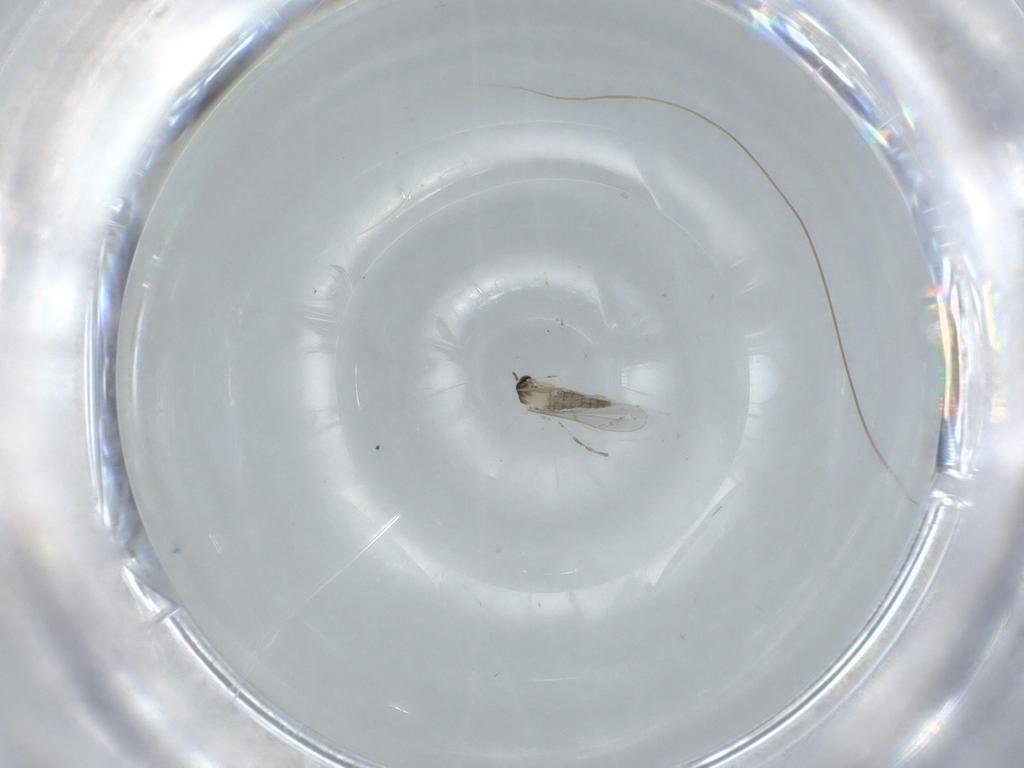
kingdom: Animalia
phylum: Arthropoda
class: Insecta
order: Diptera
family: Cecidomyiidae
